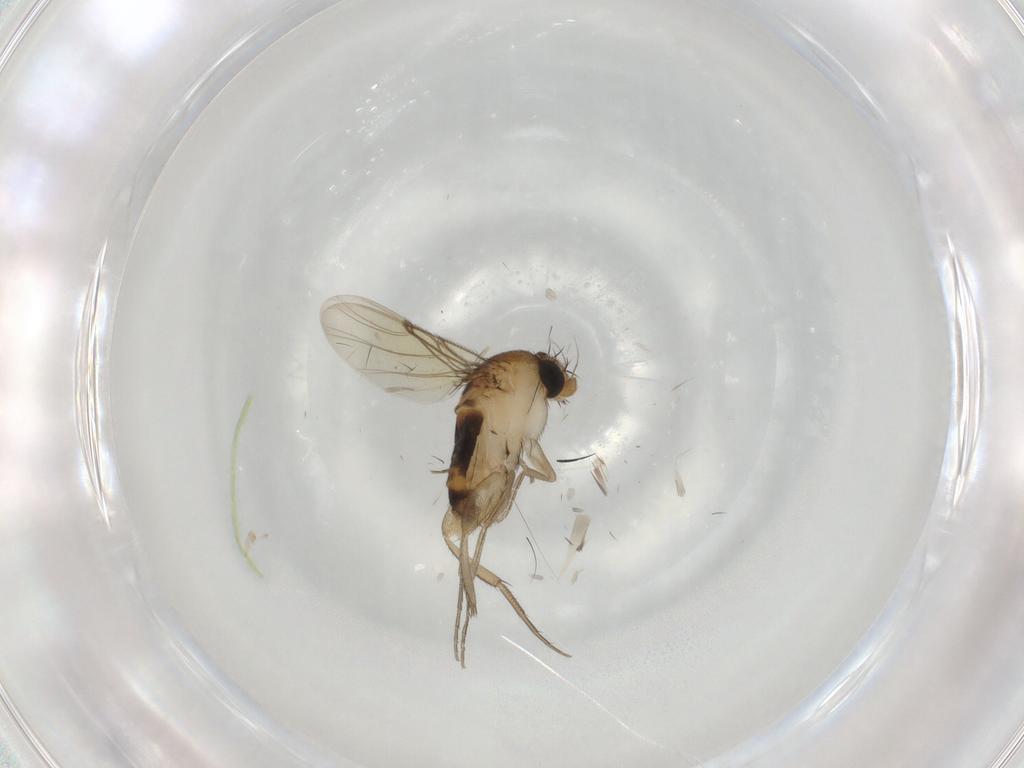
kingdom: Animalia
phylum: Arthropoda
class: Insecta
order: Diptera
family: Phoridae
